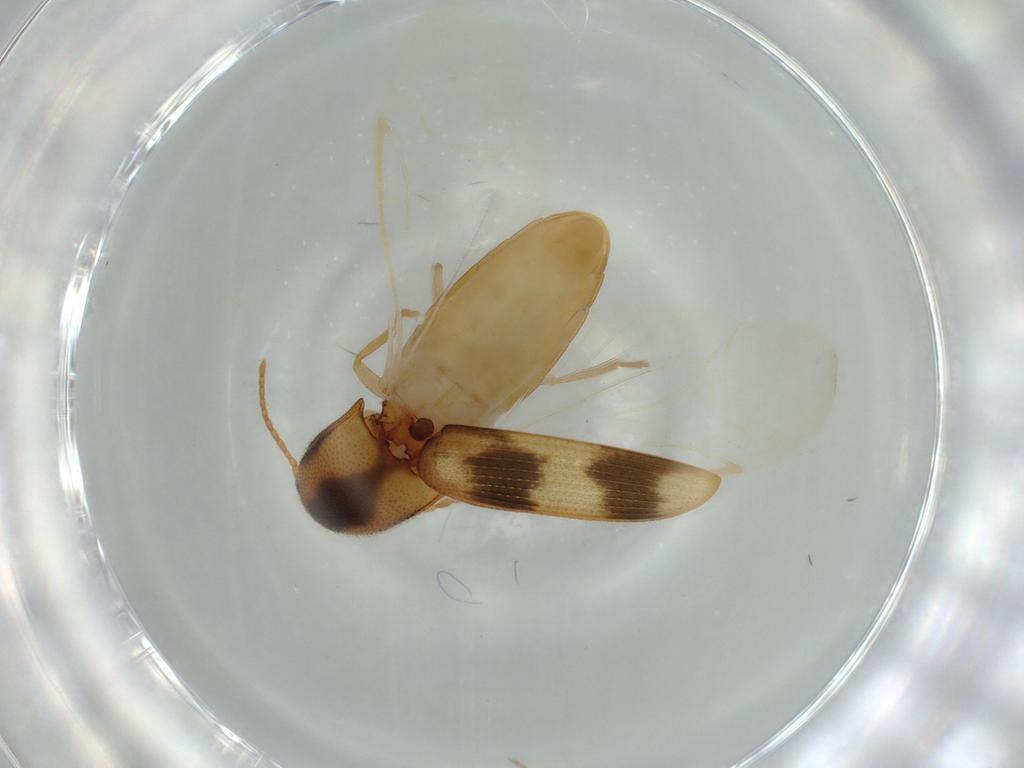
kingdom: Animalia
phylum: Arthropoda
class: Insecta
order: Coleoptera
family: Elateridae
